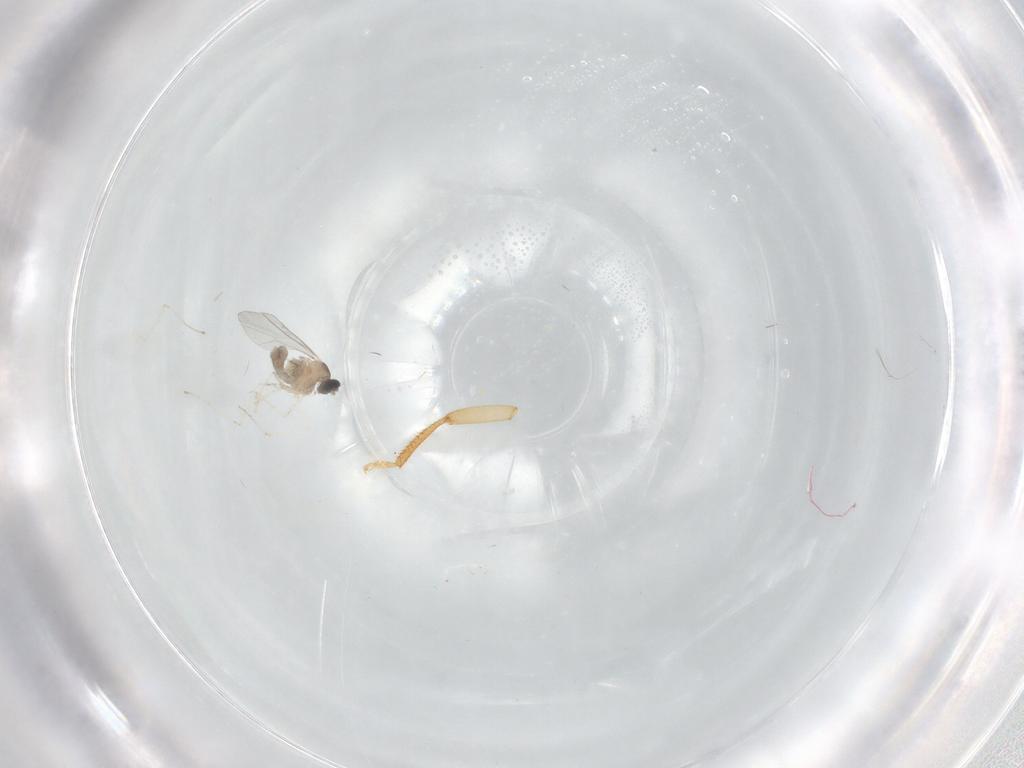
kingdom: Animalia
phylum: Arthropoda
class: Insecta
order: Diptera
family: Cecidomyiidae
